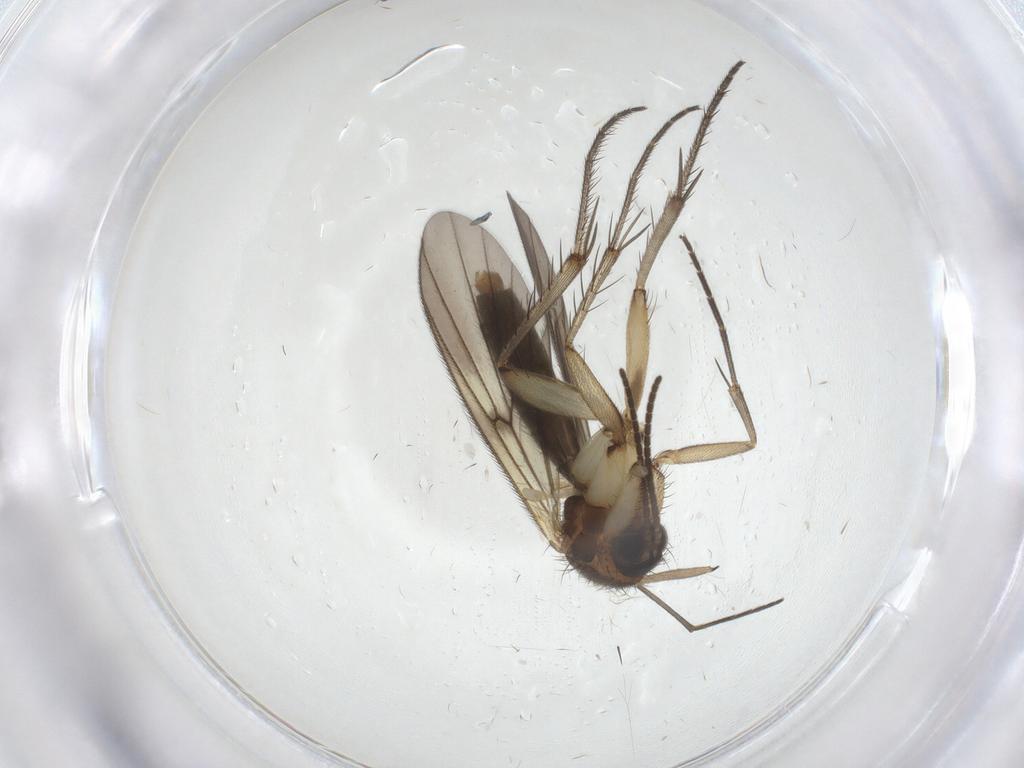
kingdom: Animalia
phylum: Arthropoda
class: Insecta
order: Diptera
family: Mycetophilidae
